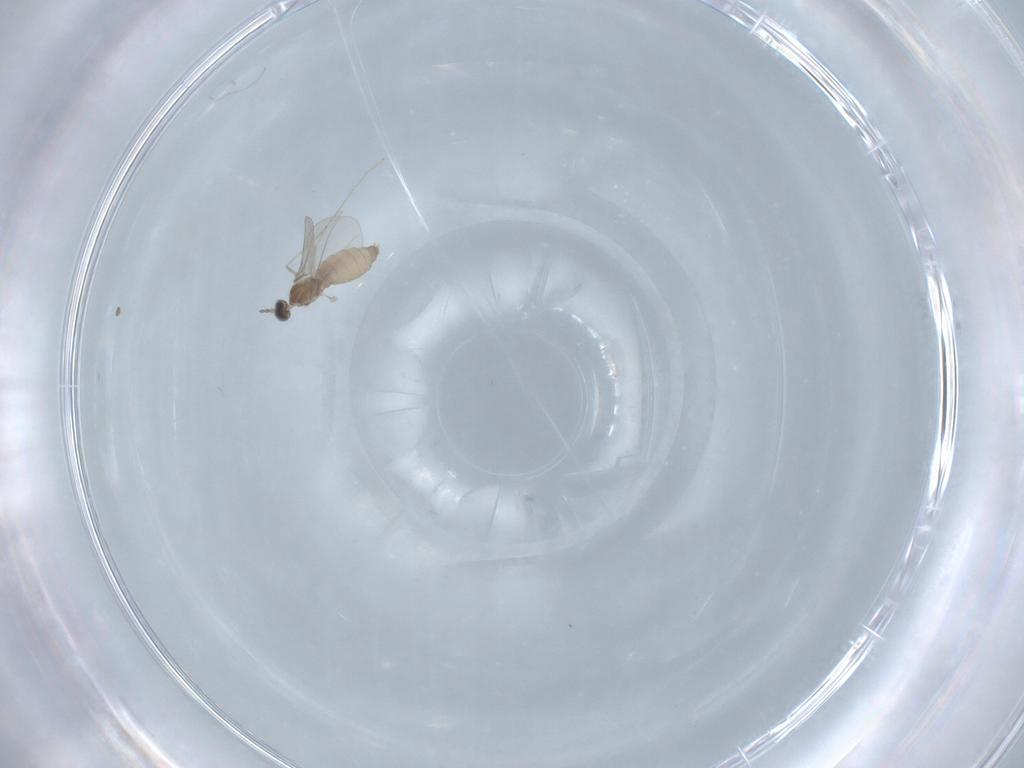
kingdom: Animalia
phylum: Arthropoda
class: Insecta
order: Diptera
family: Cecidomyiidae
